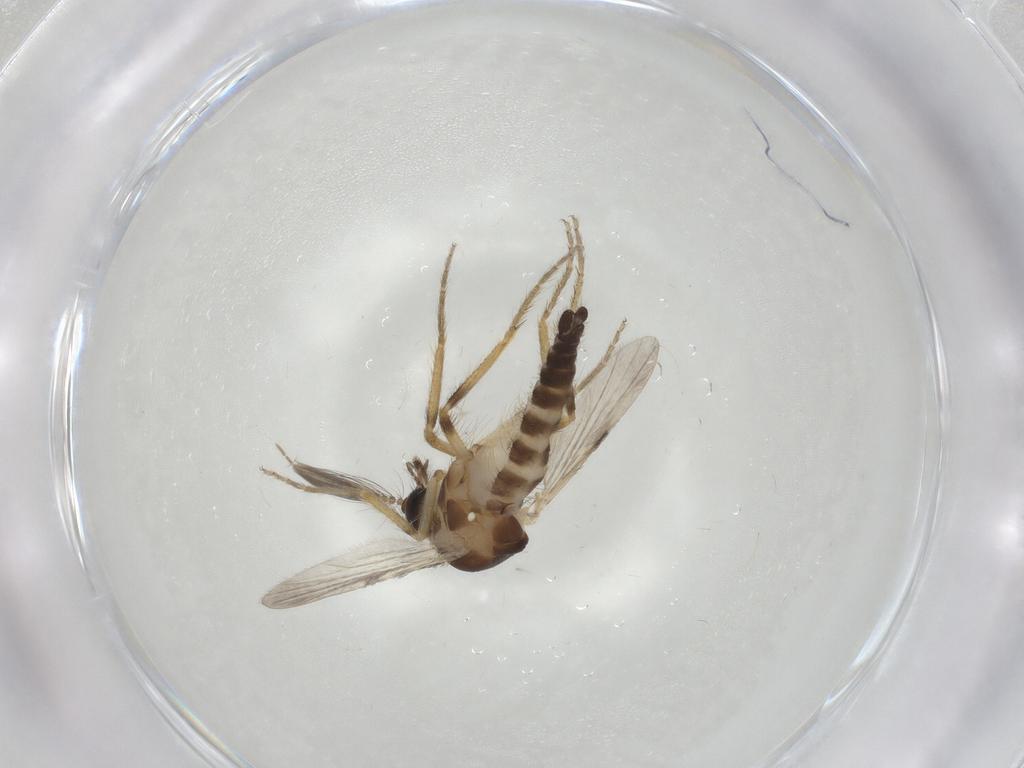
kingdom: Animalia
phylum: Arthropoda
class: Insecta
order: Diptera
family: Ceratopogonidae
